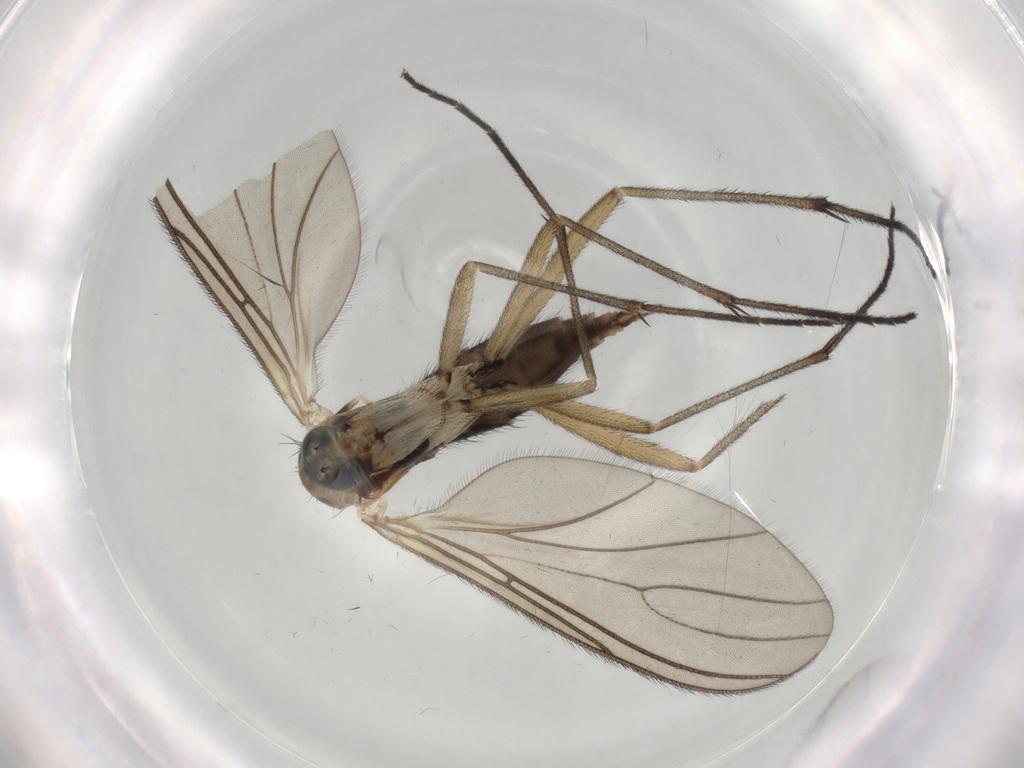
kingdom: Animalia
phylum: Arthropoda
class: Insecta
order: Diptera
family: Sciaridae
